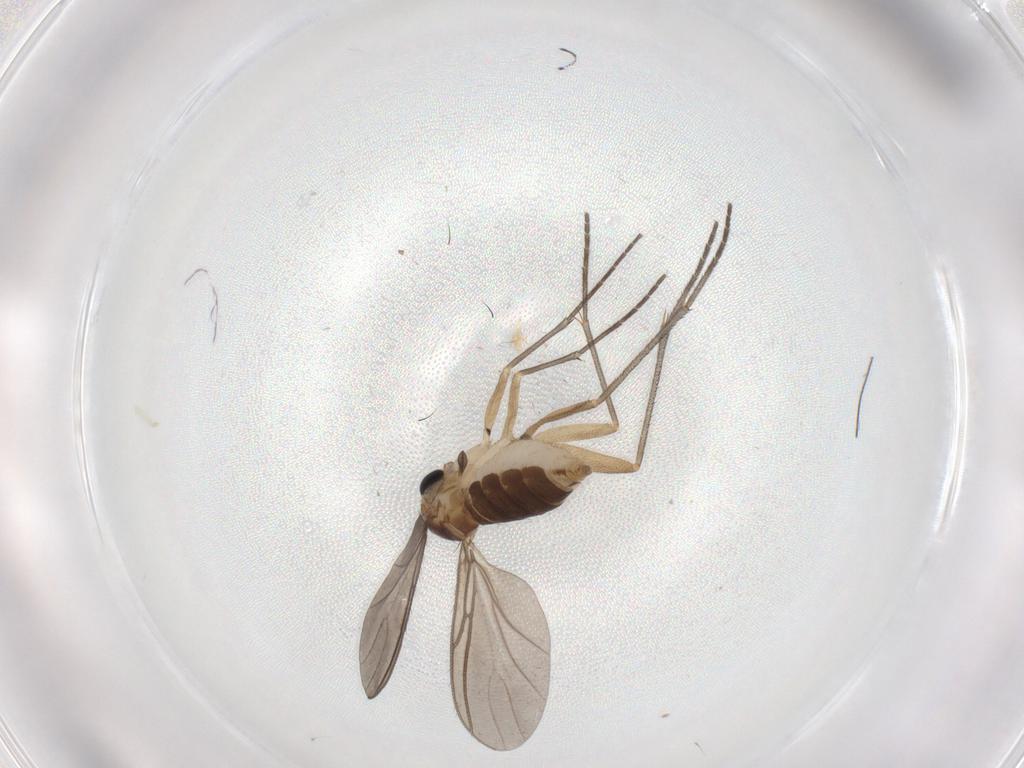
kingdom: Animalia
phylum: Arthropoda
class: Insecta
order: Diptera
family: Sciaridae
